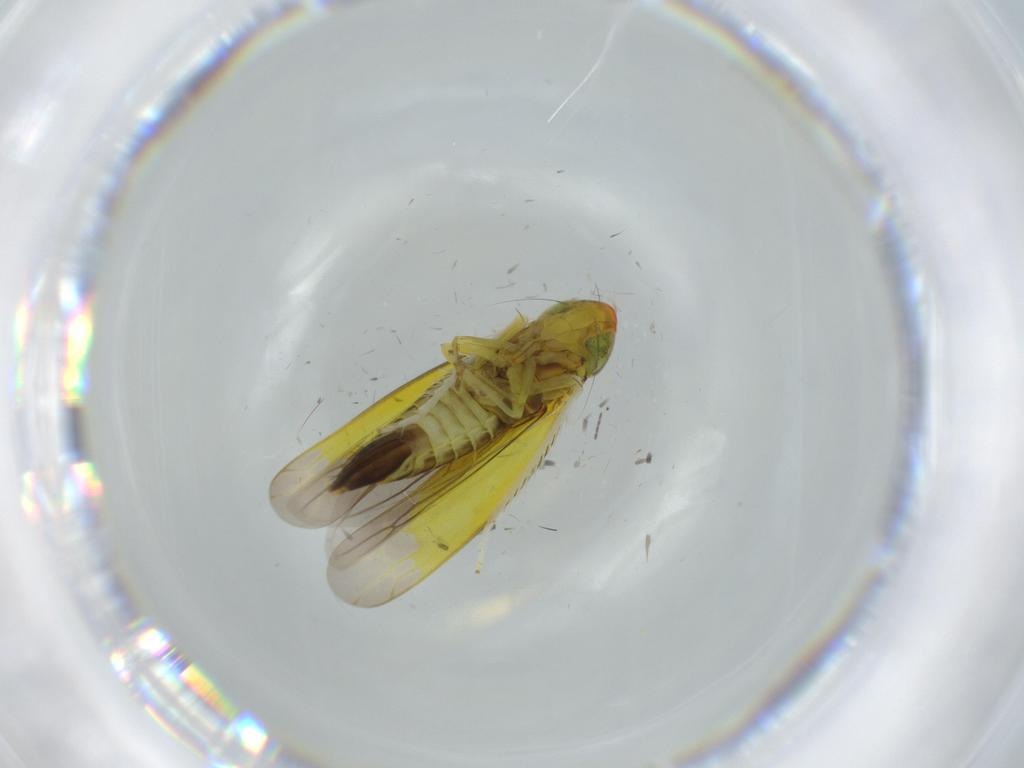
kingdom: Animalia
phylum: Arthropoda
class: Insecta
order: Hemiptera
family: Cicadellidae
